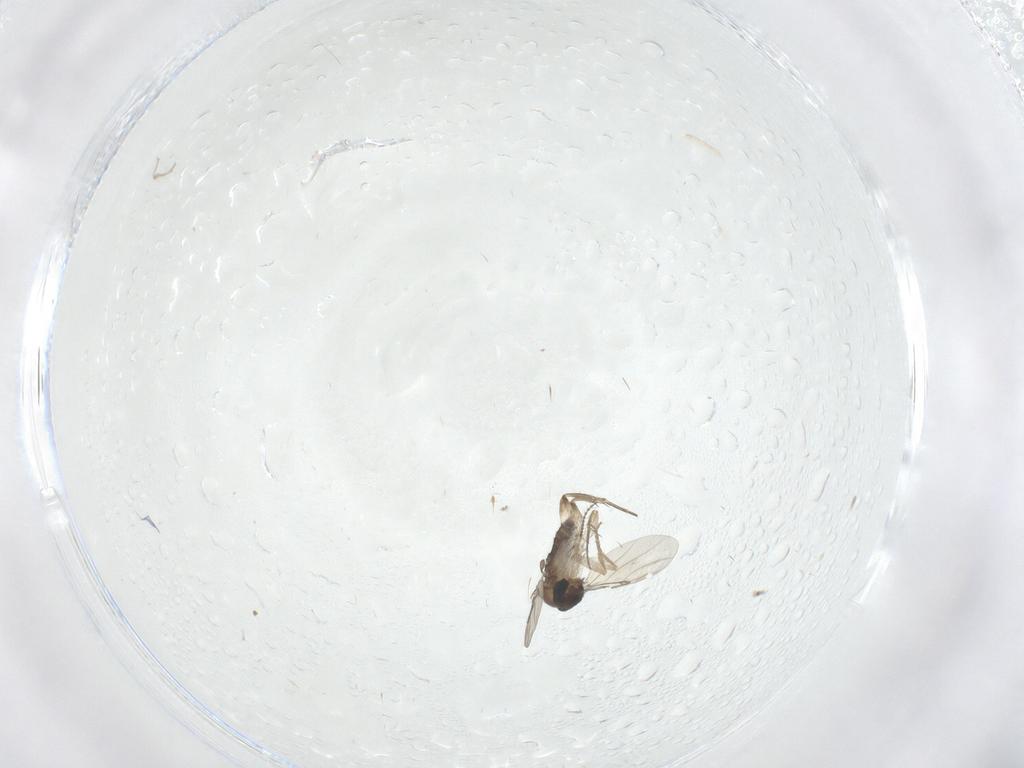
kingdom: Animalia
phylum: Arthropoda
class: Insecta
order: Diptera
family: Phoridae
